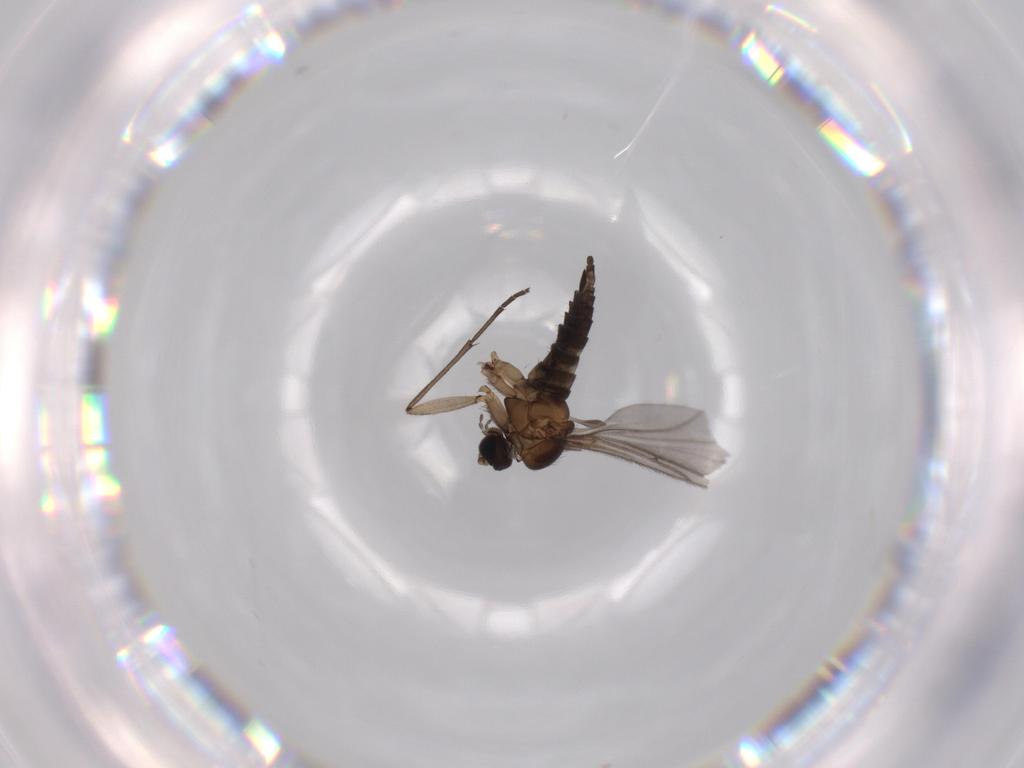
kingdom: Animalia
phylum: Arthropoda
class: Insecta
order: Diptera
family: Sciaridae
